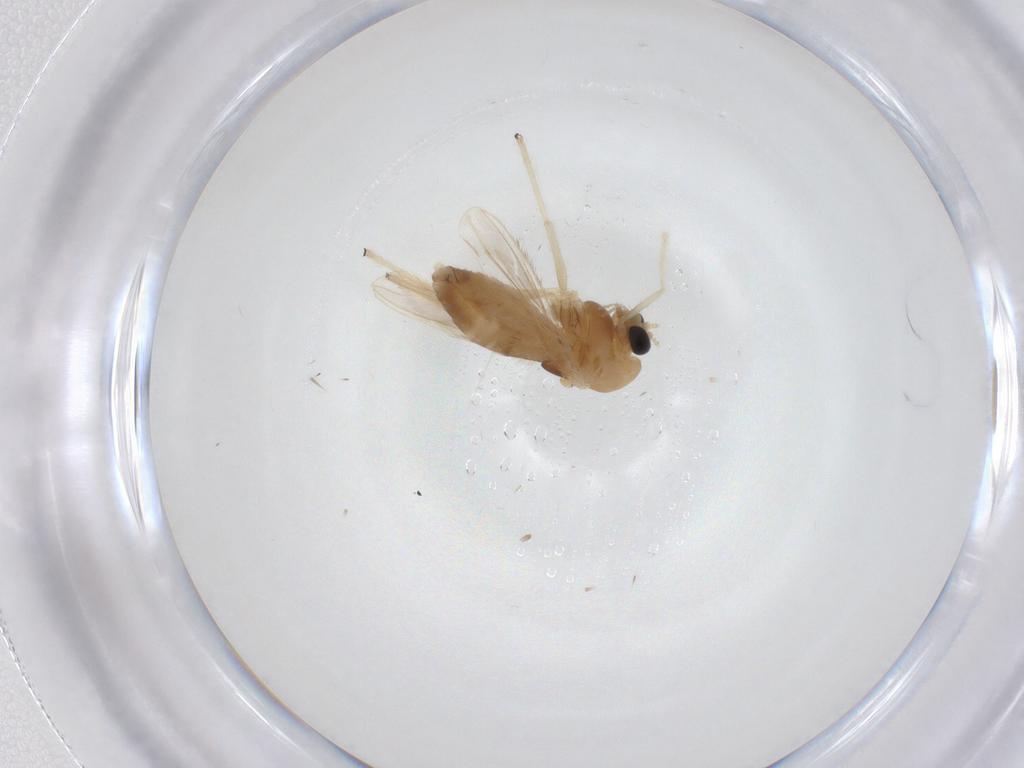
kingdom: Animalia
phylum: Arthropoda
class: Insecta
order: Diptera
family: Chironomidae
